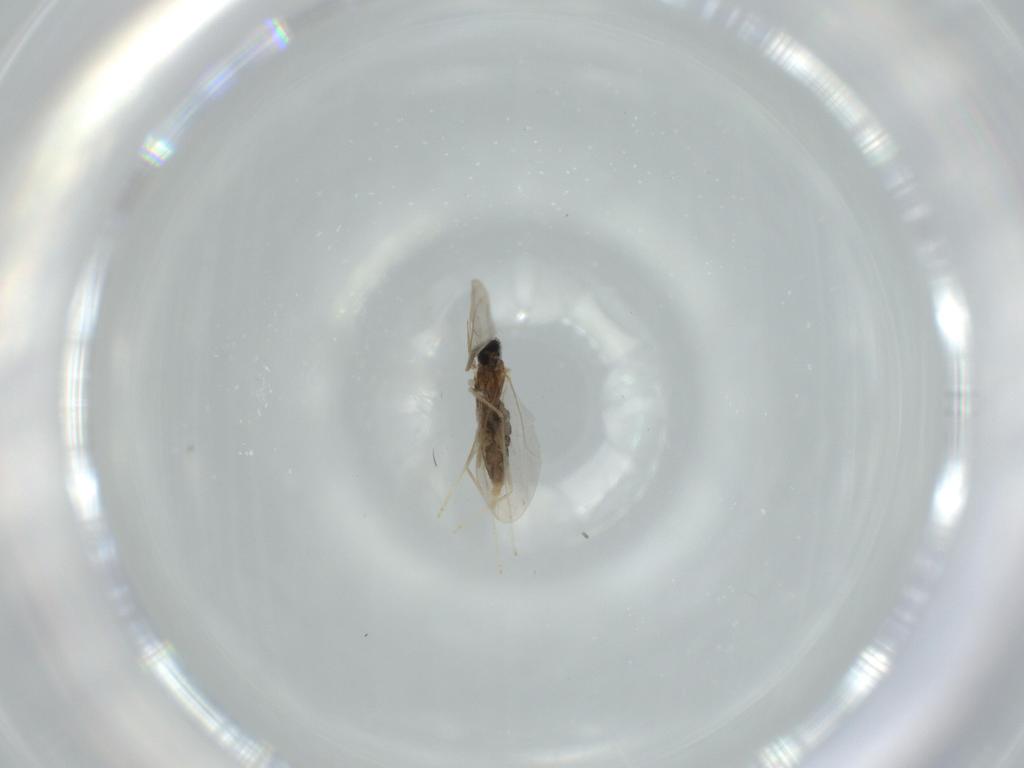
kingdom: Animalia
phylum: Arthropoda
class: Insecta
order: Diptera
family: Cecidomyiidae
